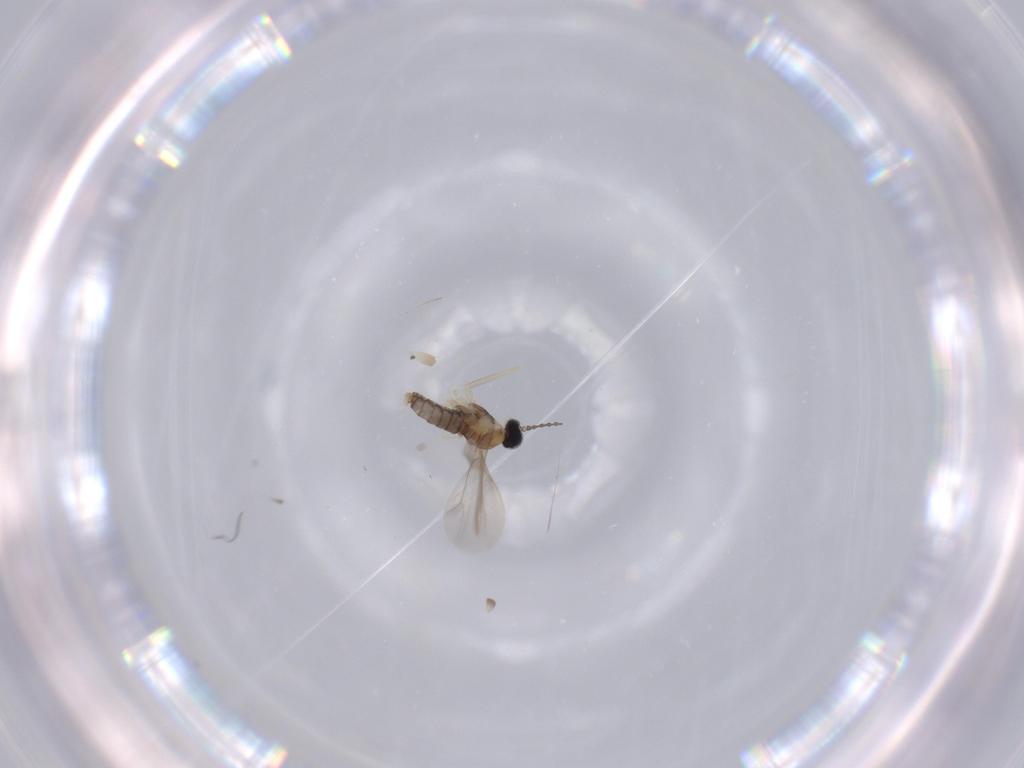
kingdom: Animalia
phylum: Arthropoda
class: Insecta
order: Diptera
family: Cecidomyiidae
